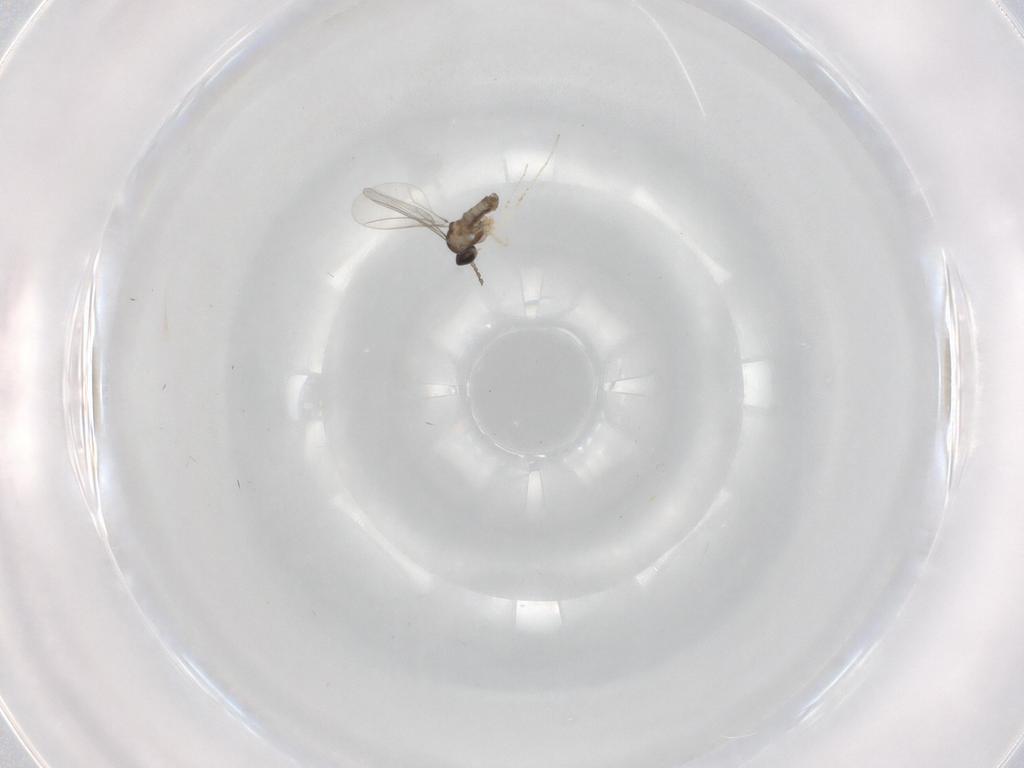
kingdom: Animalia
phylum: Arthropoda
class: Insecta
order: Diptera
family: Cecidomyiidae
